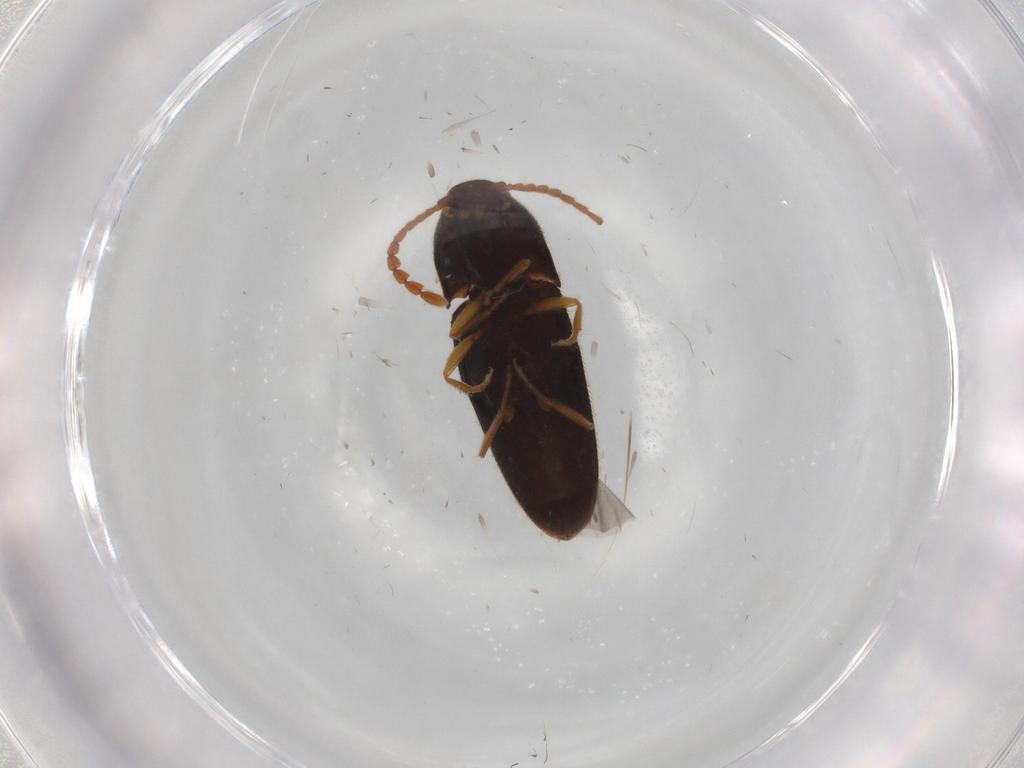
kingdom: Animalia
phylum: Arthropoda
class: Insecta
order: Coleoptera
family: Elateridae
